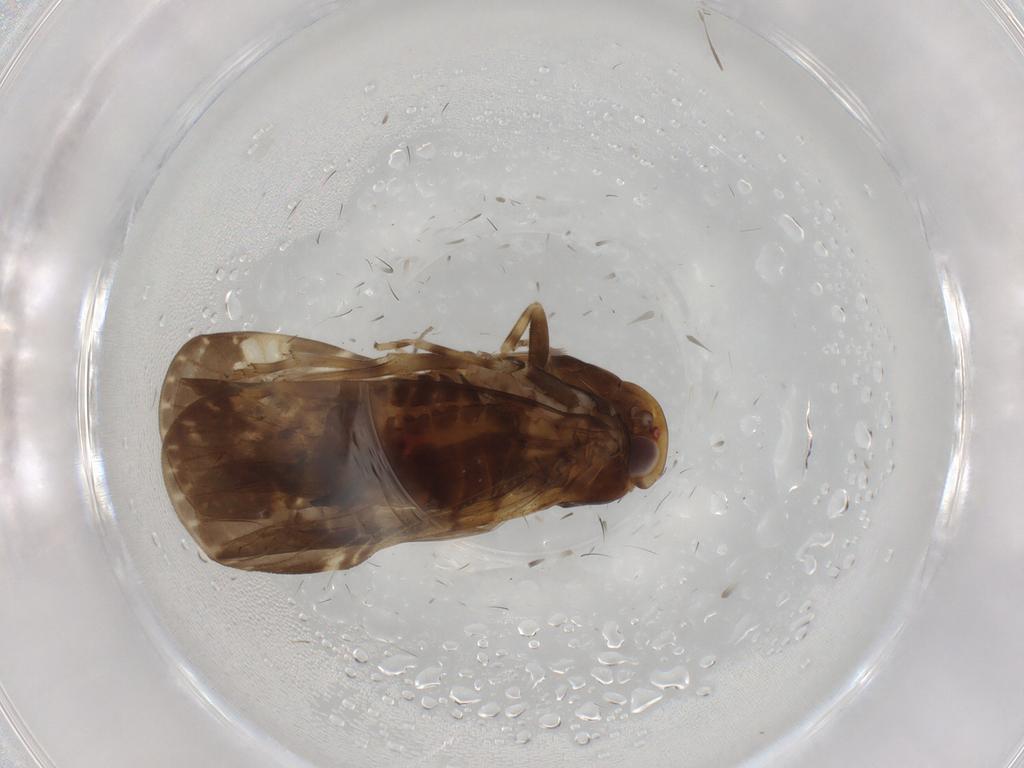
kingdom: Animalia
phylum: Arthropoda
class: Insecta
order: Hemiptera
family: Cixiidae
